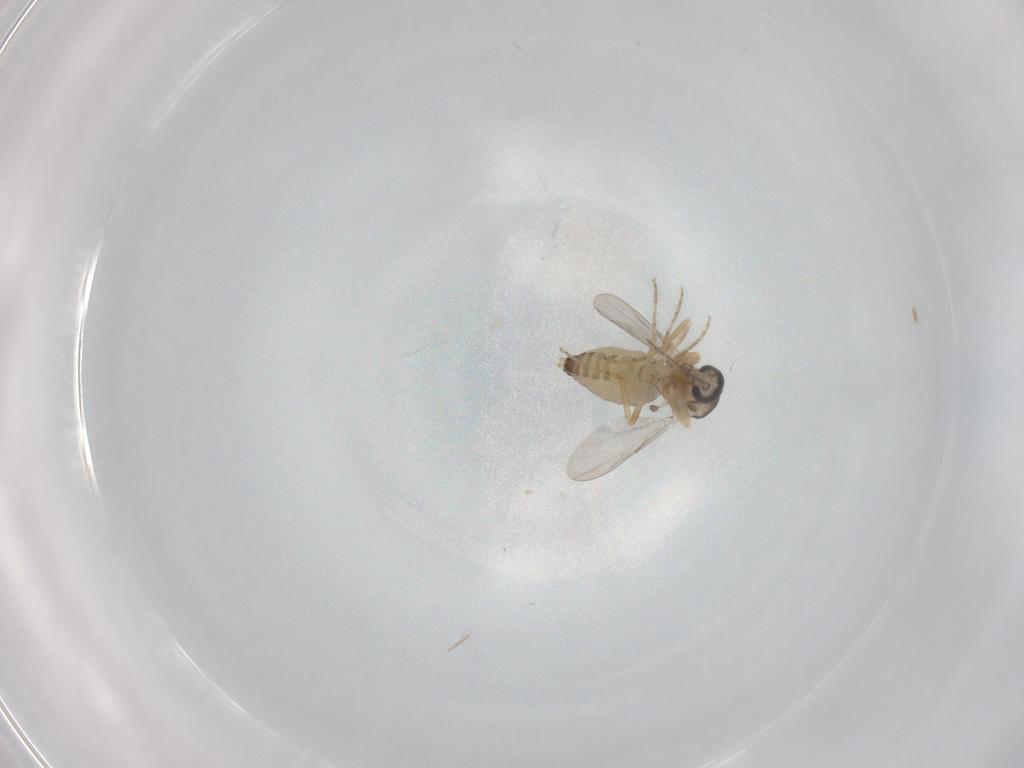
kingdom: Animalia
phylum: Arthropoda
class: Insecta
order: Diptera
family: Ceratopogonidae
